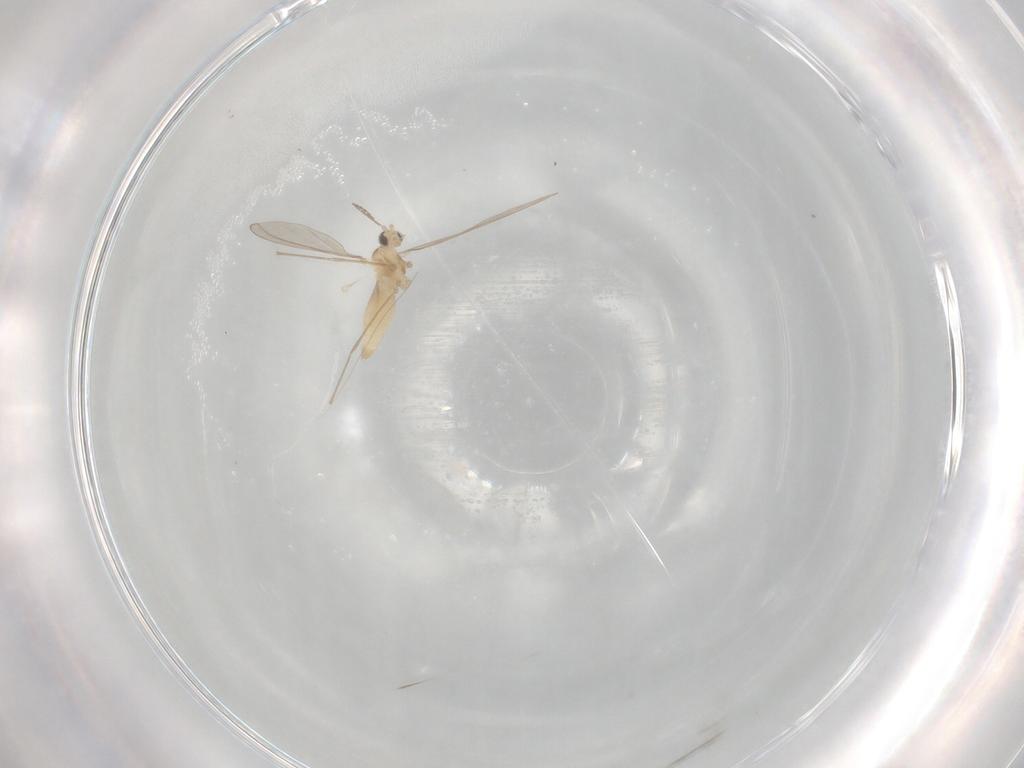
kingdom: Animalia
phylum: Arthropoda
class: Insecta
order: Diptera
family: Cecidomyiidae
